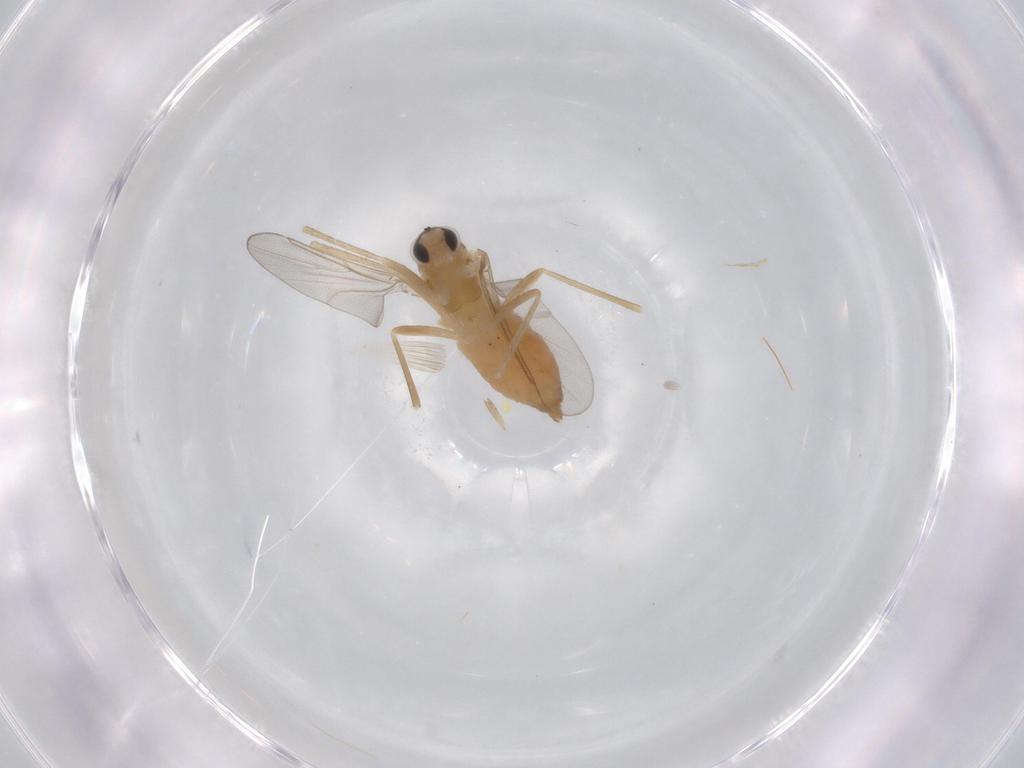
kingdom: Animalia
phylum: Arthropoda
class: Insecta
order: Diptera
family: Cecidomyiidae
